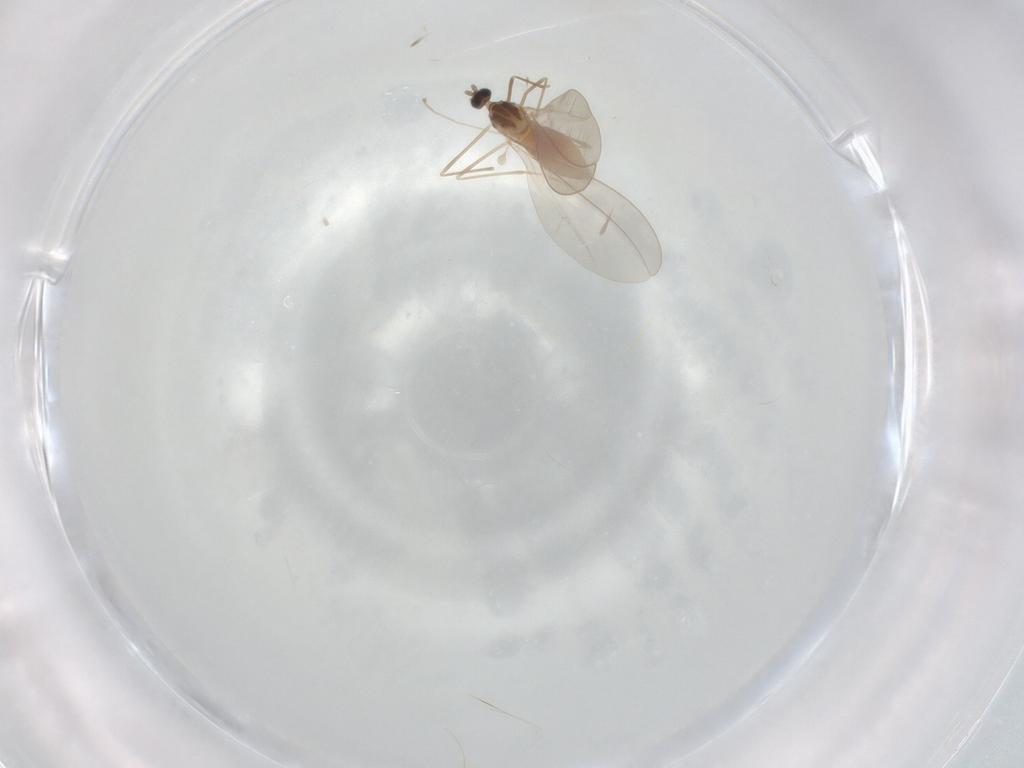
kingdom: Animalia
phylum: Arthropoda
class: Insecta
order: Diptera
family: Cecidomyiidae
